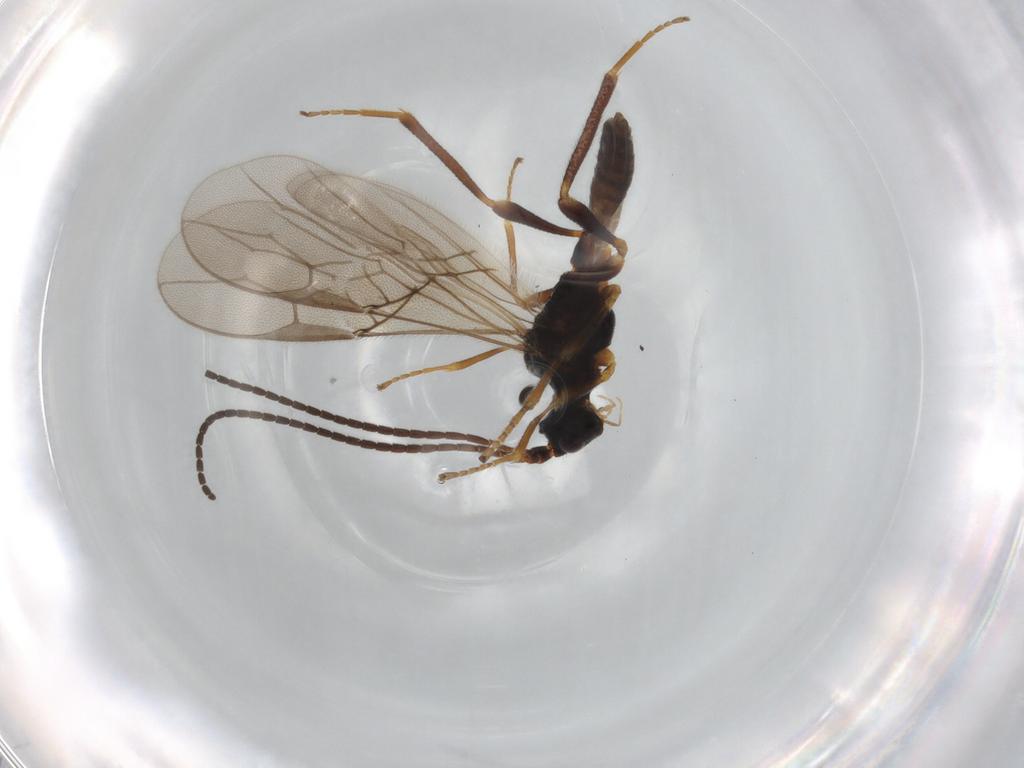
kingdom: Animalia
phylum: Arthropoda
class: Insecta
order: Hymenoptera
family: Braconidae
